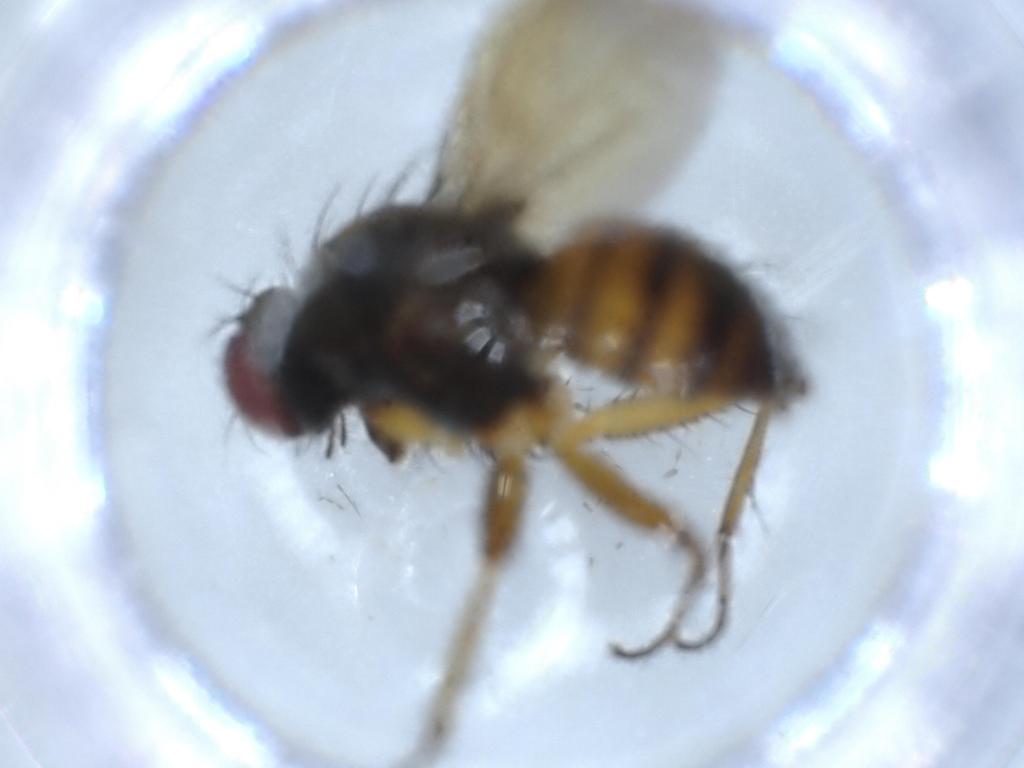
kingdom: Animalia
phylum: Arthropoda
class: Insecta
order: Diptera
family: Muscidae
